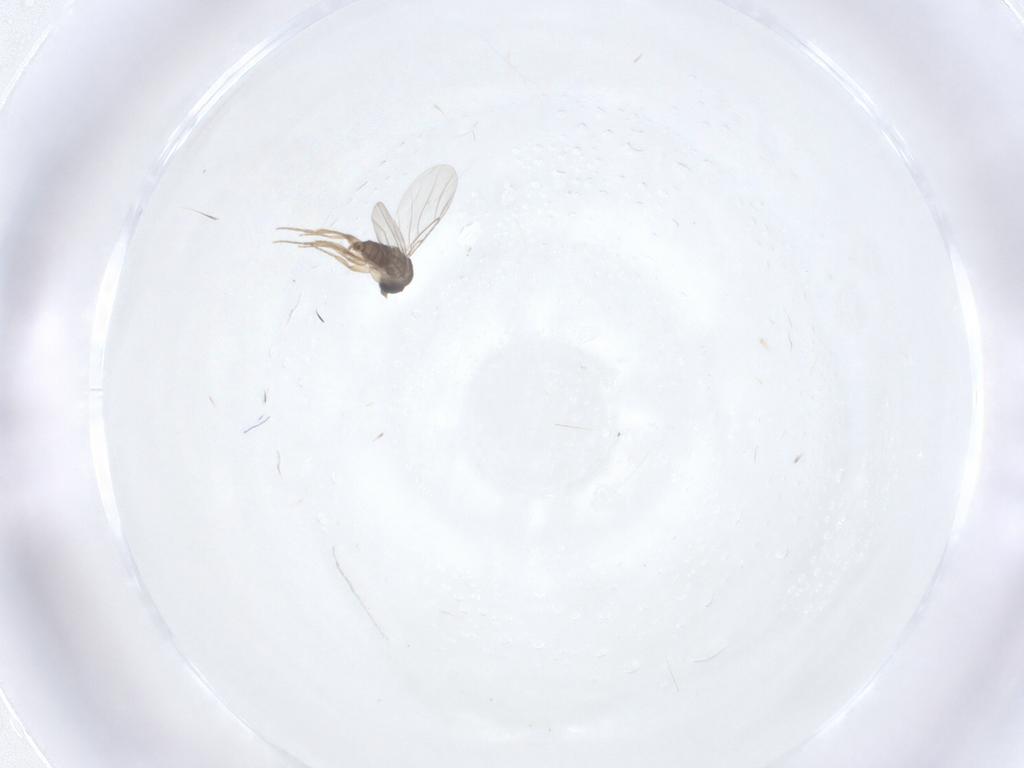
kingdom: Animalia
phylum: Arthropoda
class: Insecta
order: Diptera
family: Phoridae
